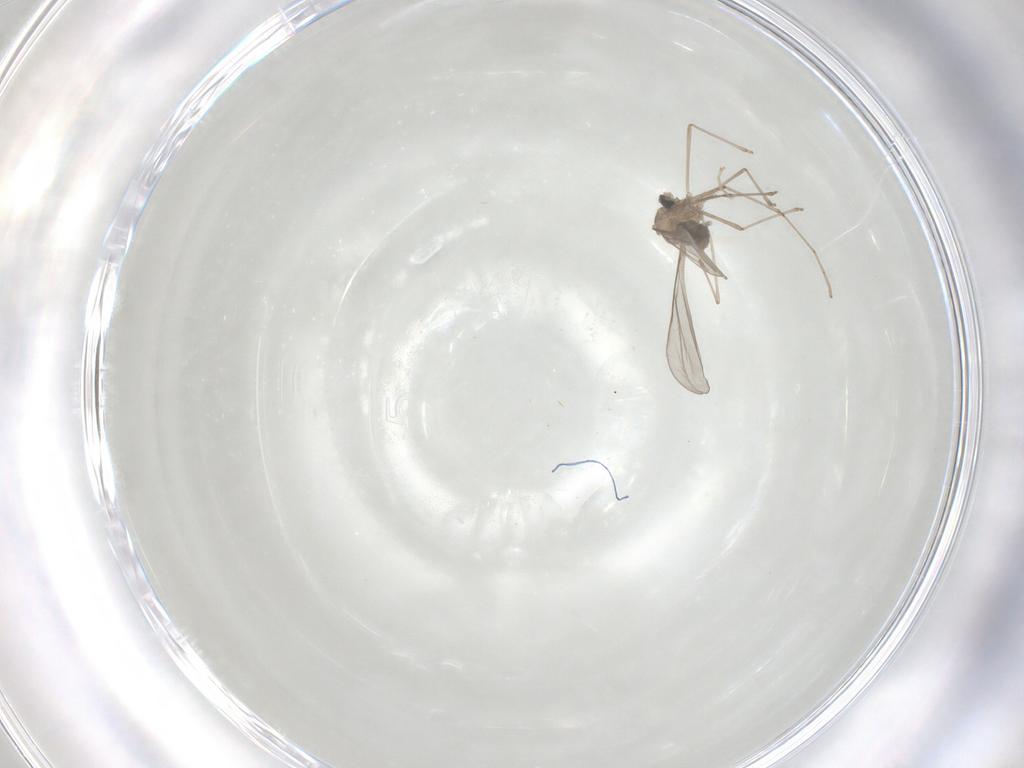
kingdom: Animalia
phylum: Arthropoda
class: Insecta
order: Diptera
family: Cecidomyiidae
